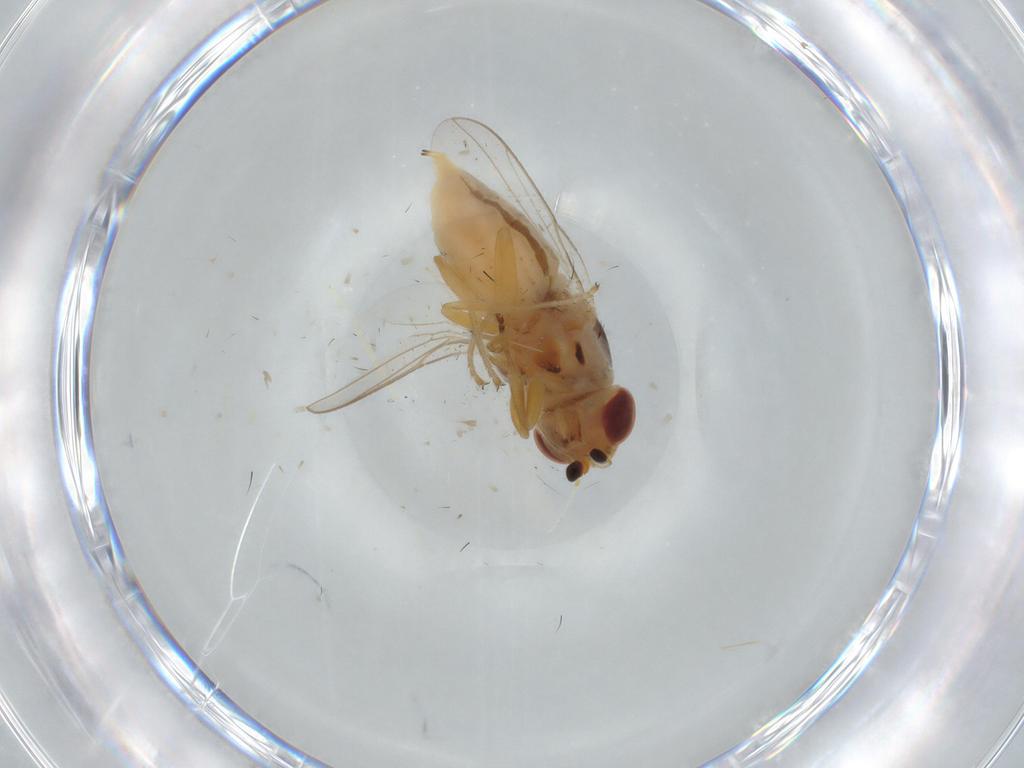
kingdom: Animalia
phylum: Arthropoda
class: Insecta
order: Diptera
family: Dolichopodidae
